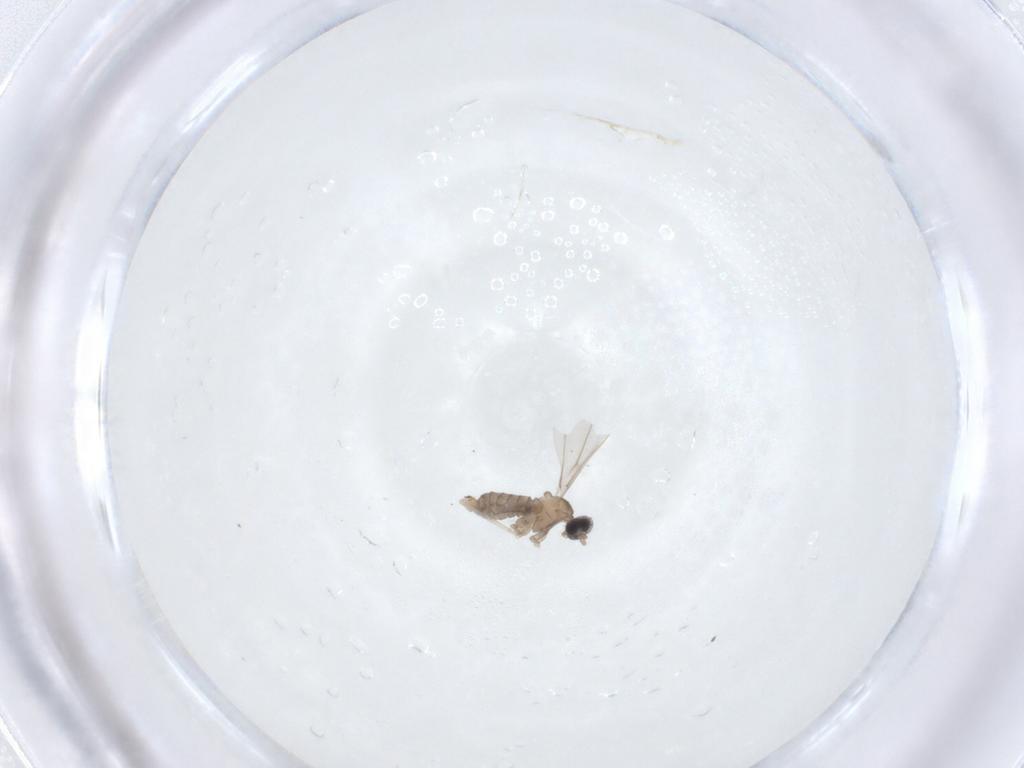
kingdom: Animalia
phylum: Arthropoda
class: Insecta
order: Diptera
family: Cecidomyiidae
